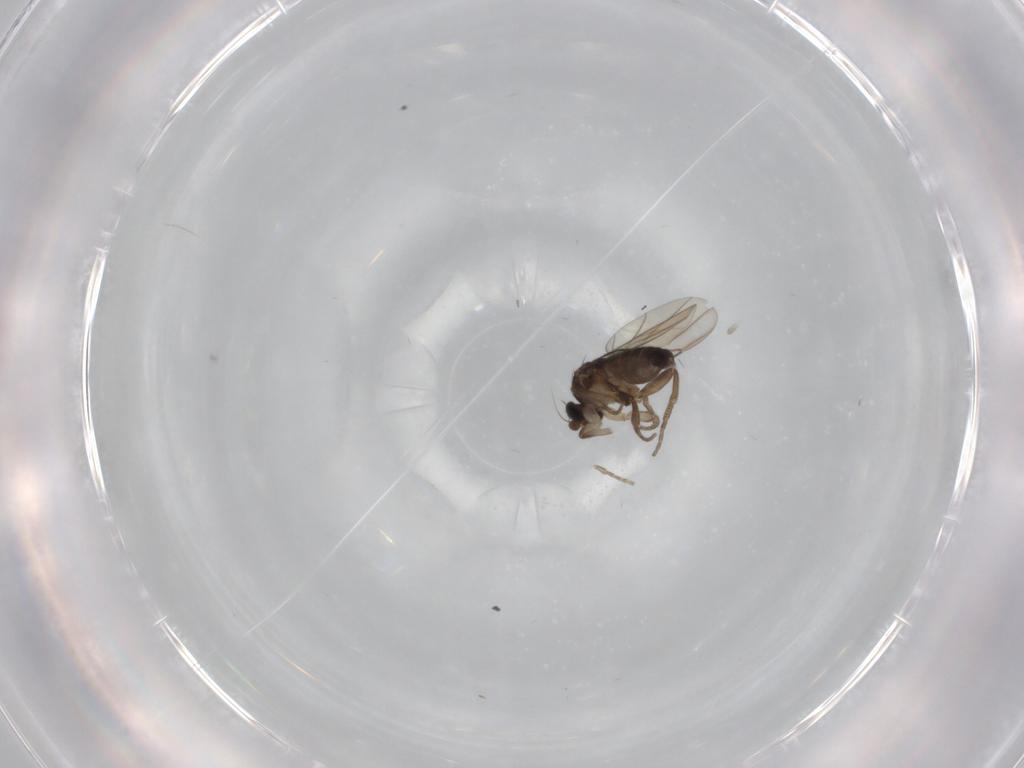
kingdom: Animalia
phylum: Arthropoda
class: Insecta
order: Diptera
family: Phoridae
